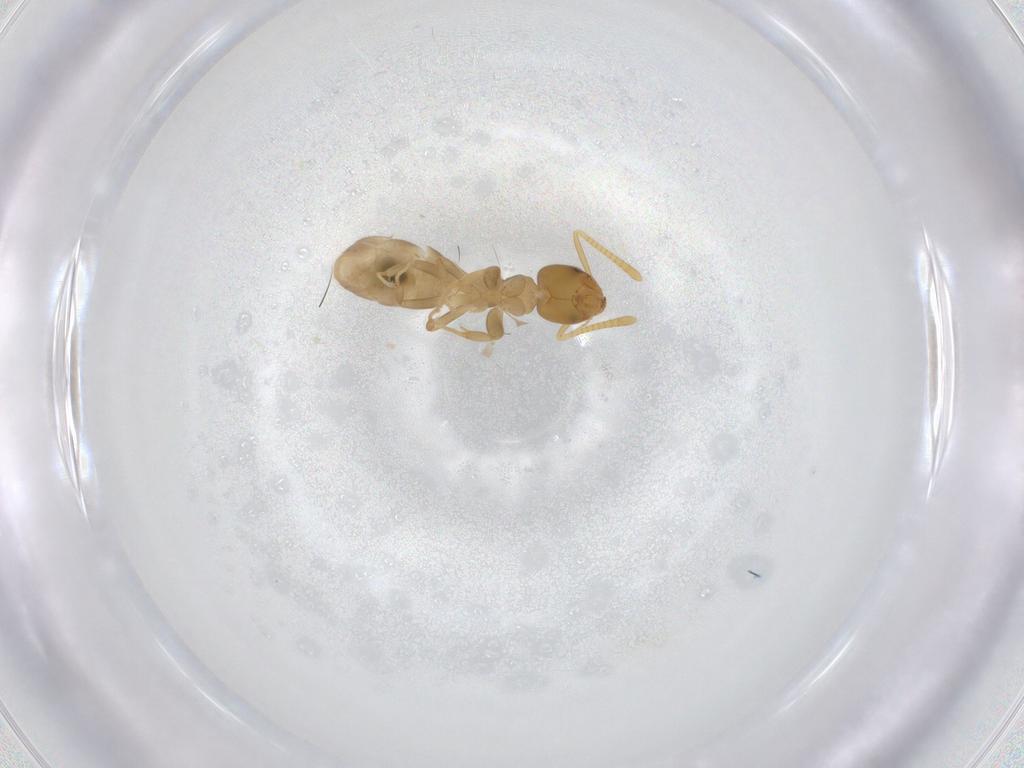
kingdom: Animalia
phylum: Arthropoda
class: Insecta
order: Hymenoptera
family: Formicidae
